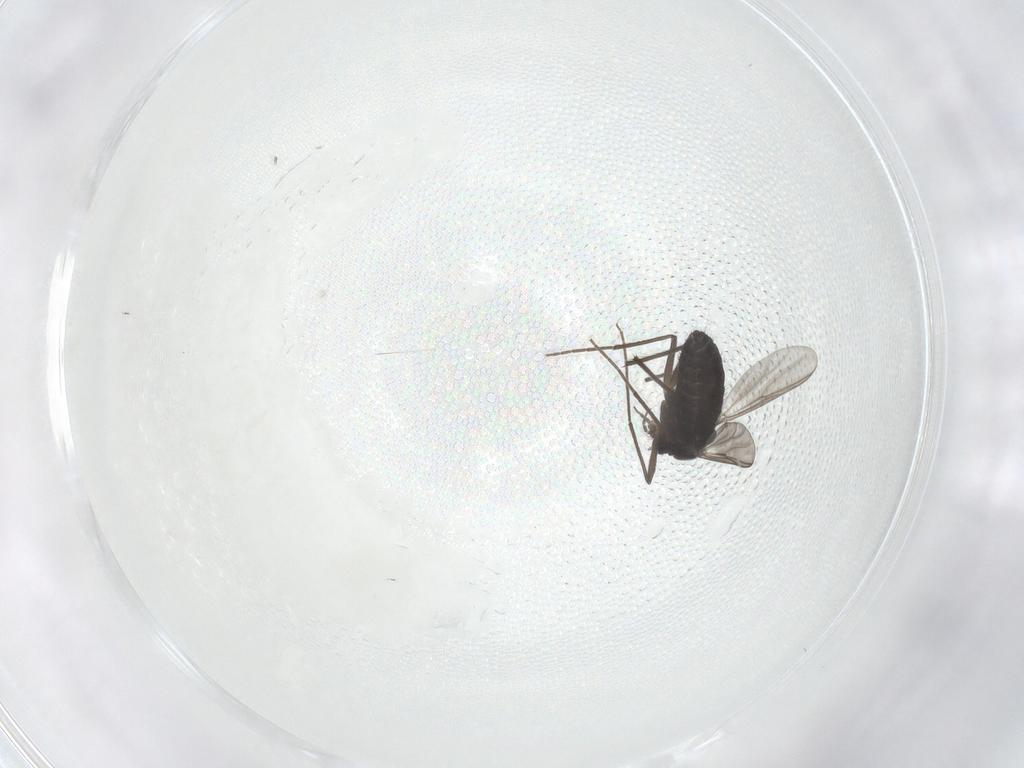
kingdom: Animalia
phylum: Arthropoda
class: Insecta
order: Diptera
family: Chironomidae
